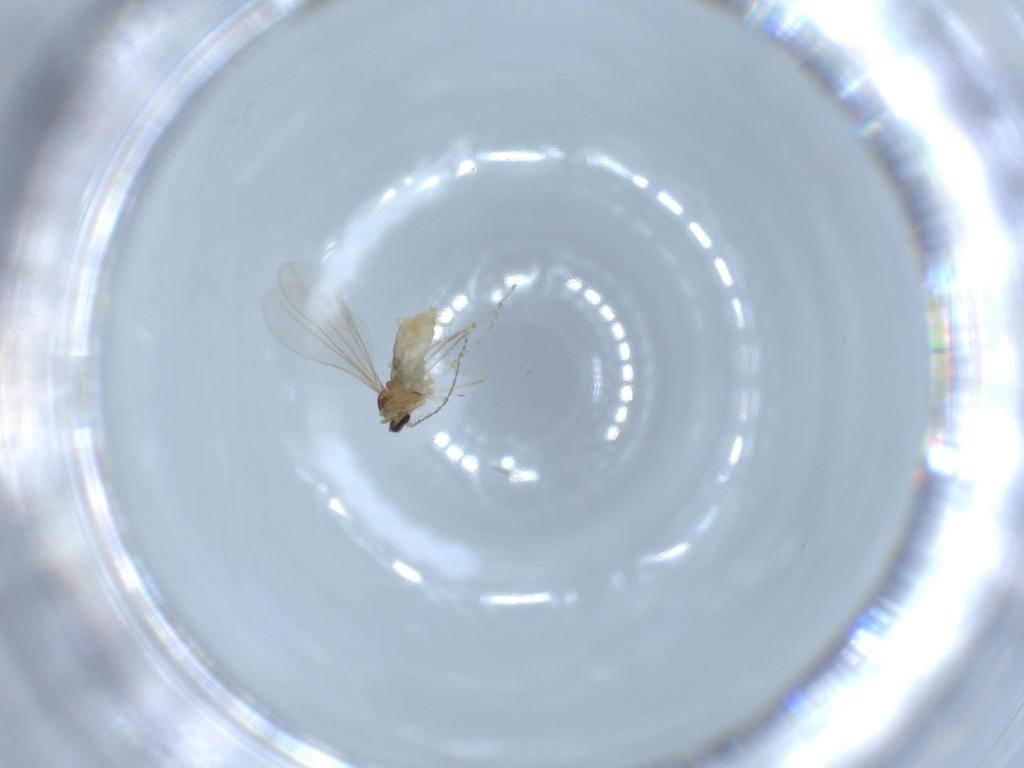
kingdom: Animalia
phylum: Arthropoda
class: Insecta
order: Diptera
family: Cecidomyiidae
